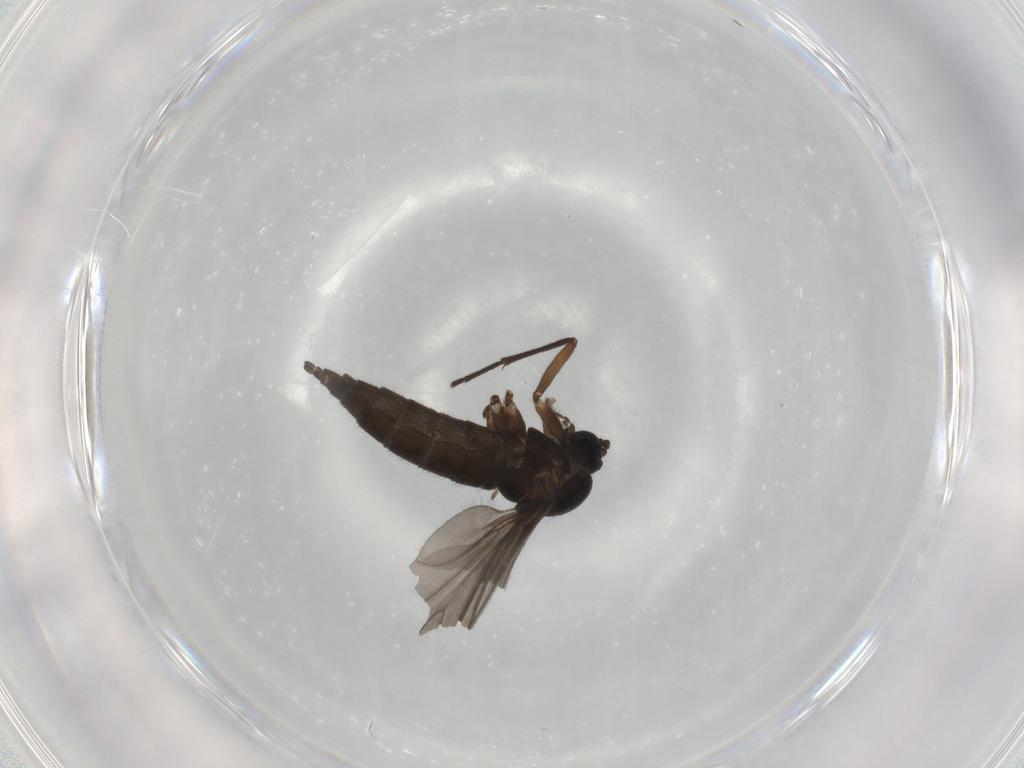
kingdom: Animalia
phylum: Arthropoda
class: Insecta
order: Diptera
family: Sciaridae
